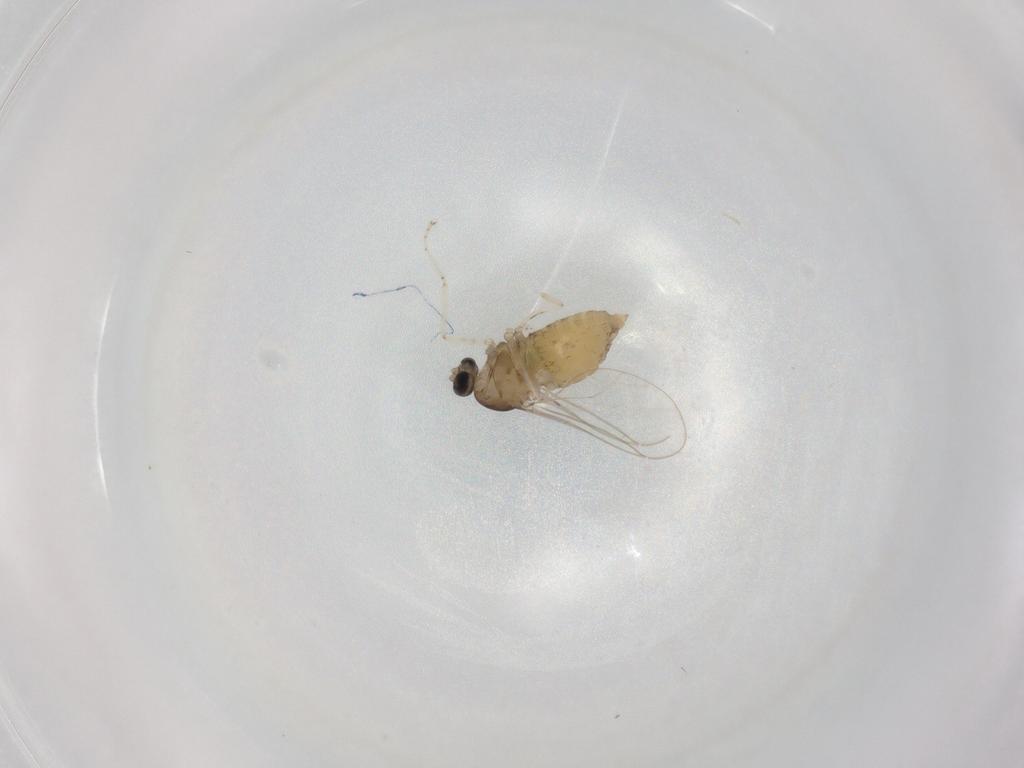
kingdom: Animalia
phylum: Arthropoda
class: Insecta
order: Diptera
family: Cecidomyiidae
